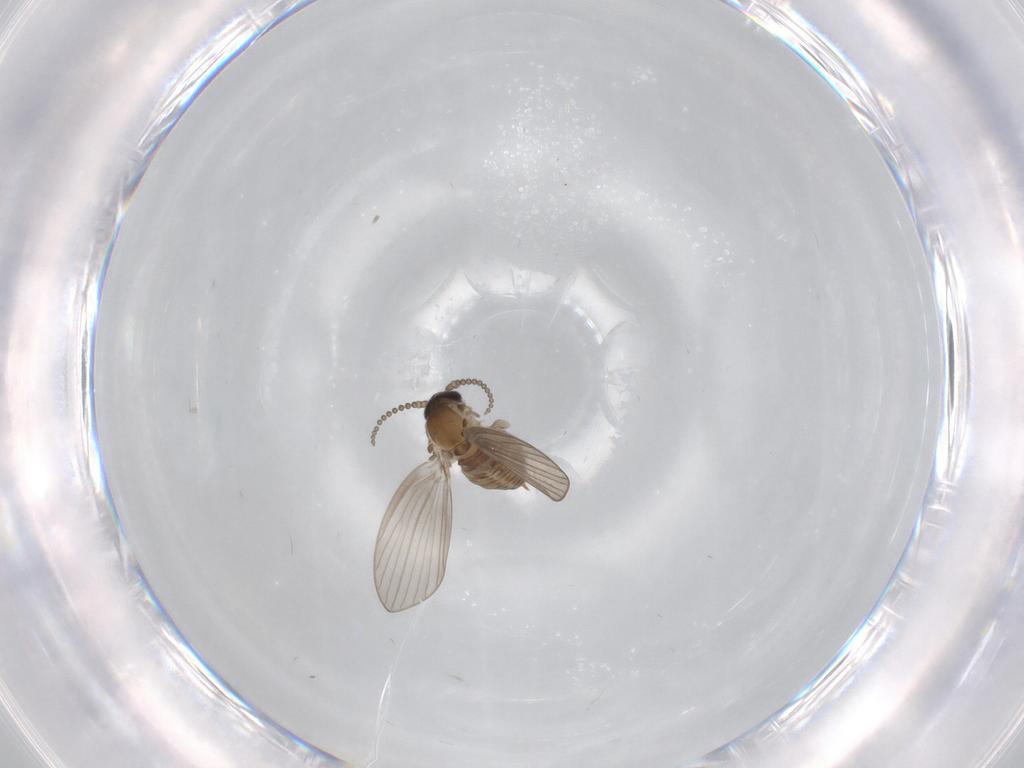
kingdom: Animalia
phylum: Arthropoda
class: Insecta
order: Diptera
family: Psychodidae
